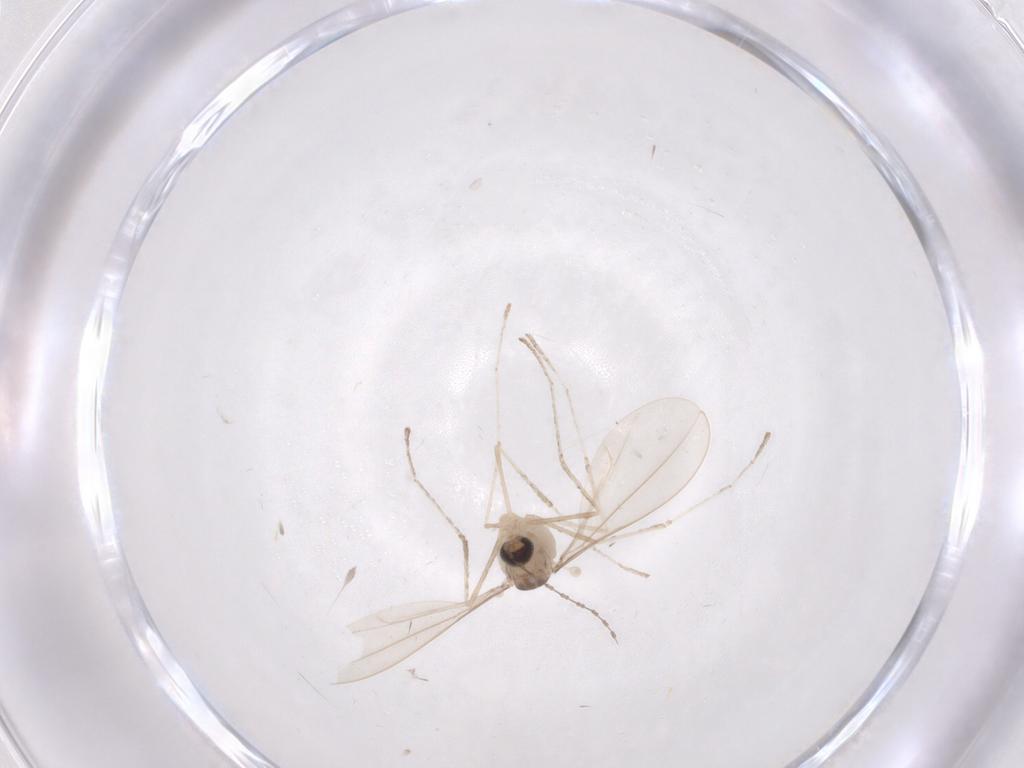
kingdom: Animalia
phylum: Arthropoda
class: Insecta
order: Diptera
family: Cecidomyiidae
